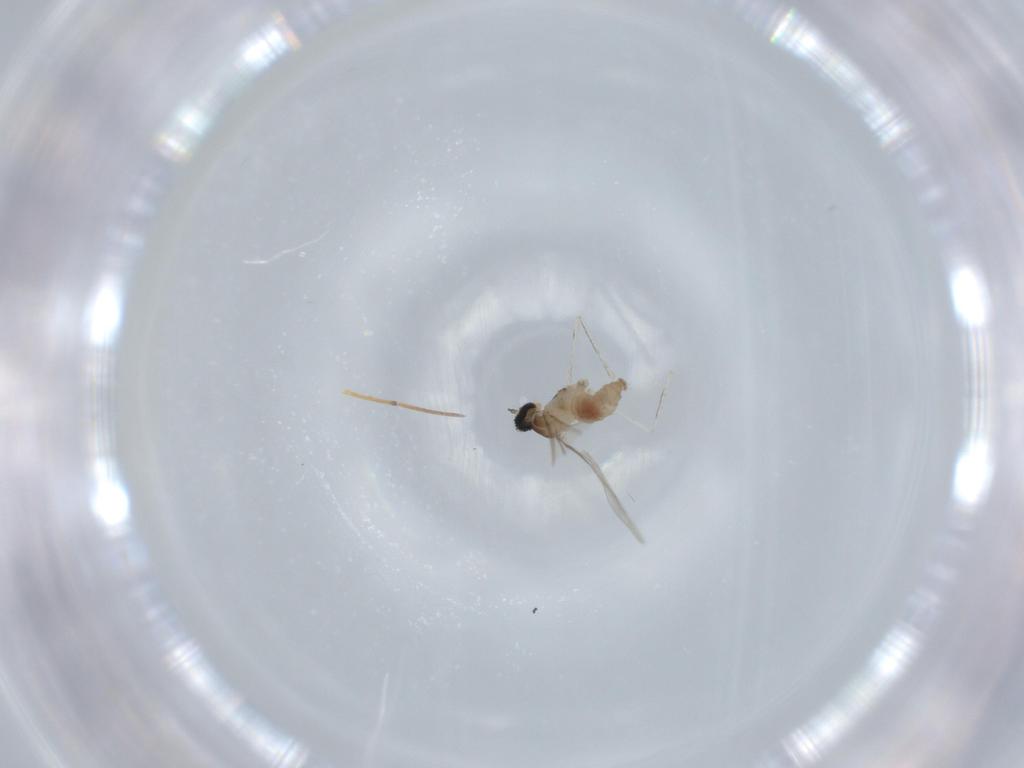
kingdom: Animalia
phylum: Arthropoda
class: Insecta
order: Diptera
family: Cecidomyiidae
